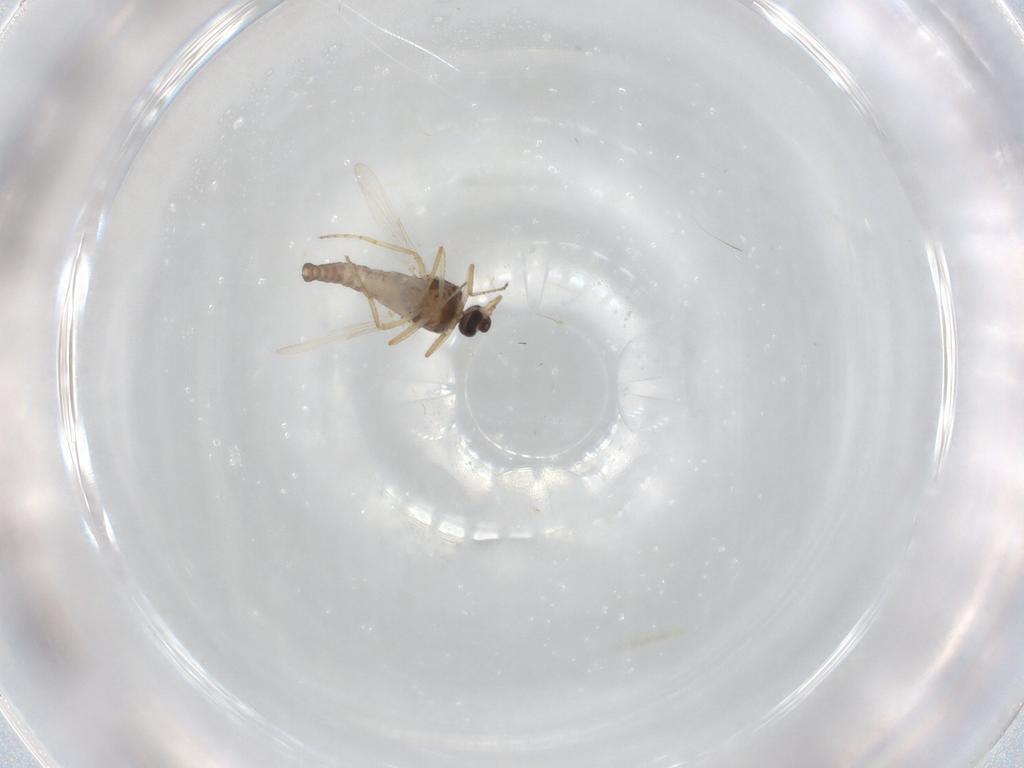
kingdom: Animalia
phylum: Arthropoda
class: Insecta
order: Diptera
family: Ceratopogonidae
